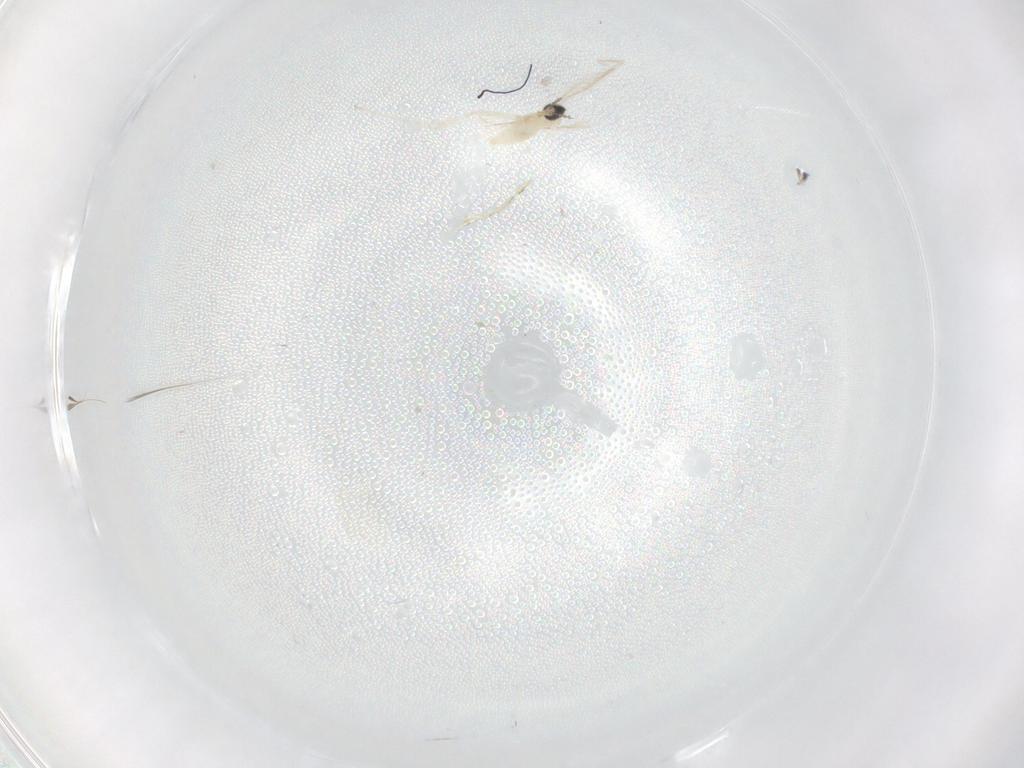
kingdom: Animalia
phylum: Arthropoda
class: Insecta
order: Diptera
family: Cecidomyiidae
